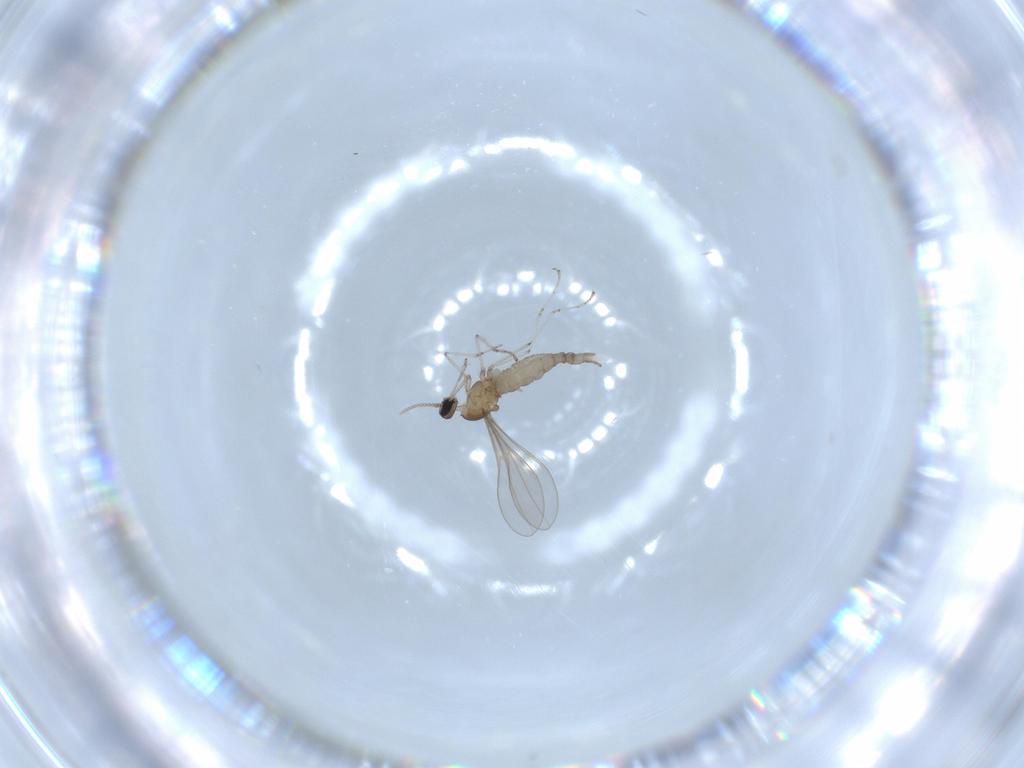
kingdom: Animalia
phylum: Arthropoda
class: Insecta
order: Diptera
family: Cecidomyiidae
